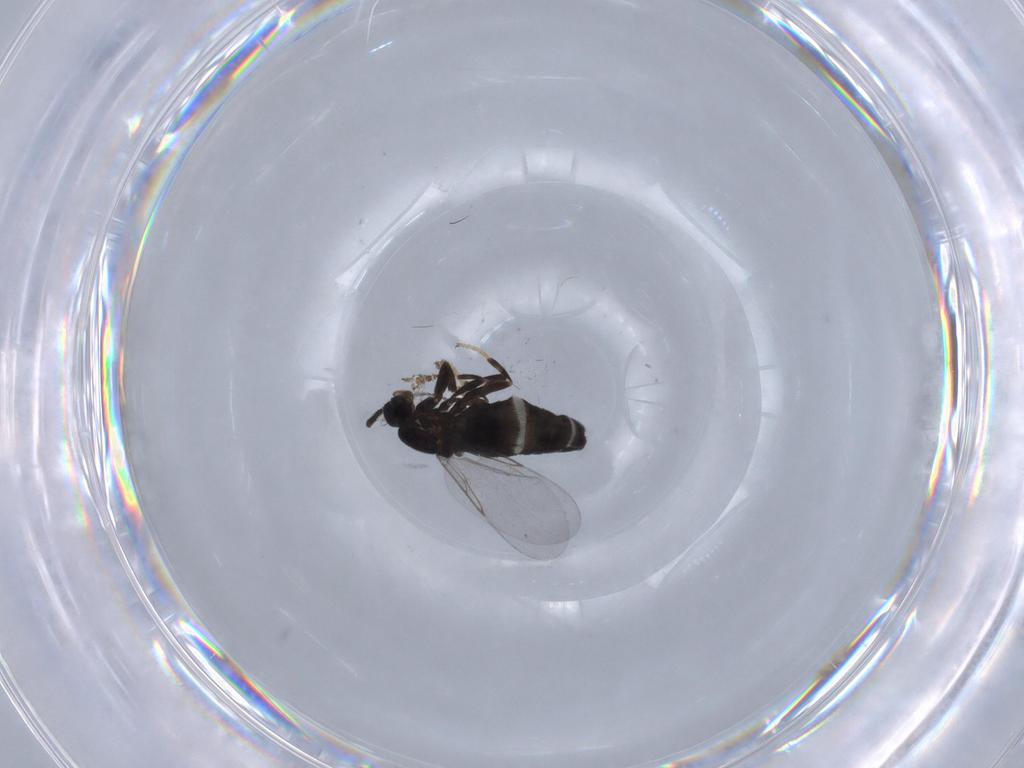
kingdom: Animalia
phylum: Arthropoda
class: Insecta
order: Diptera
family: Scatopsidae
